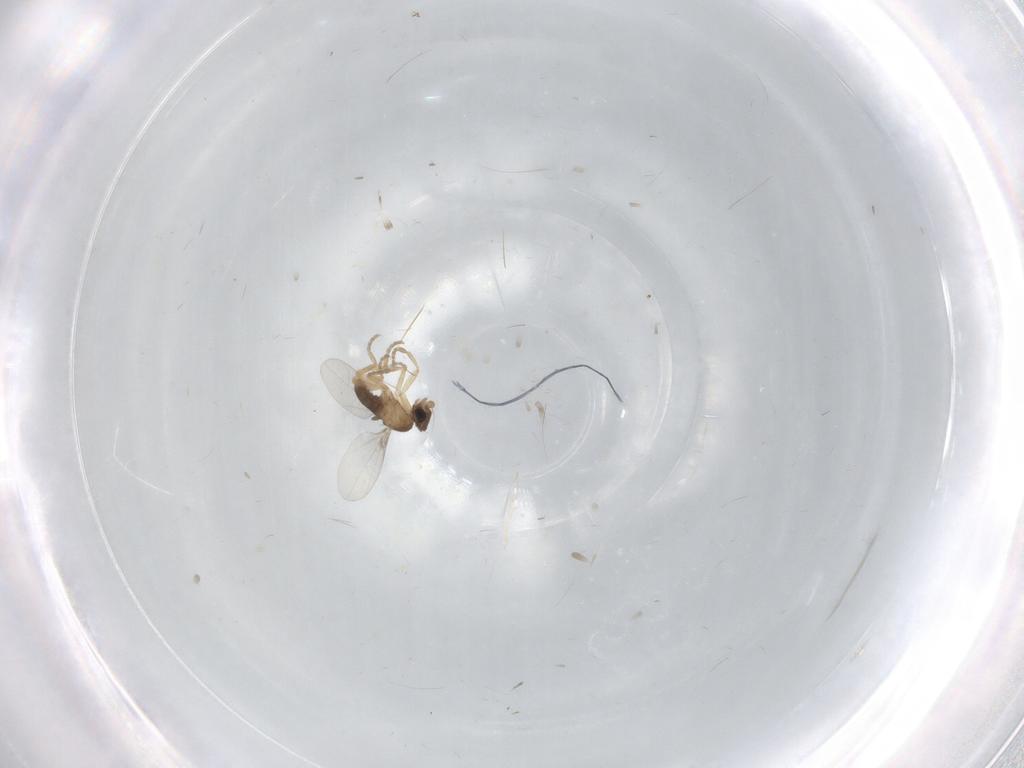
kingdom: Animalia
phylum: Arthropoda
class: Insecta
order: Diptera
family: Phoridae
